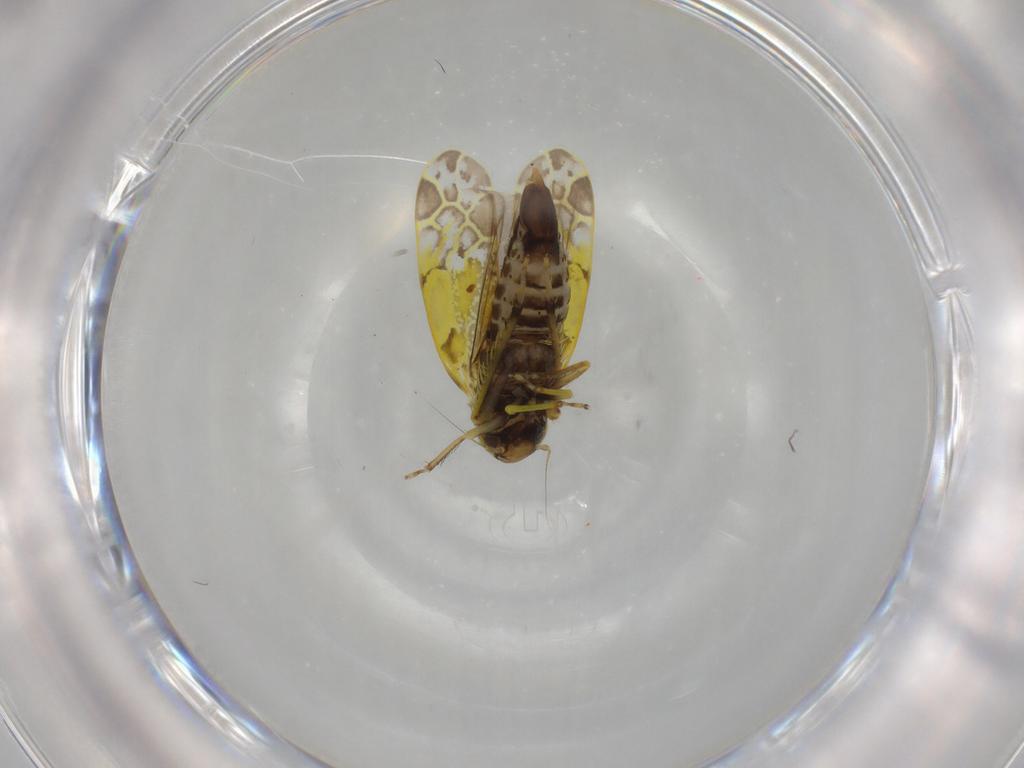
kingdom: Animalia
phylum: Arthropoda
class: Insecta
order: Hemiptera
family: Cicadellidae
